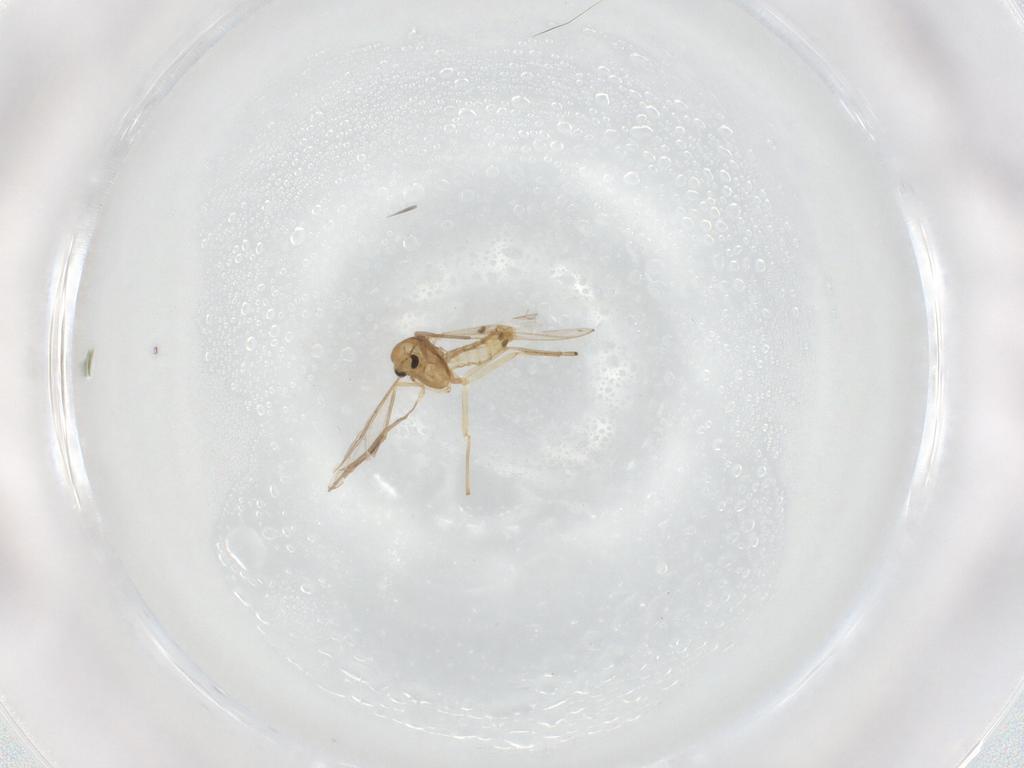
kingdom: Animalia
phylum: Arthropoda
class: Insecta
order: Diptera
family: Chironomidae
